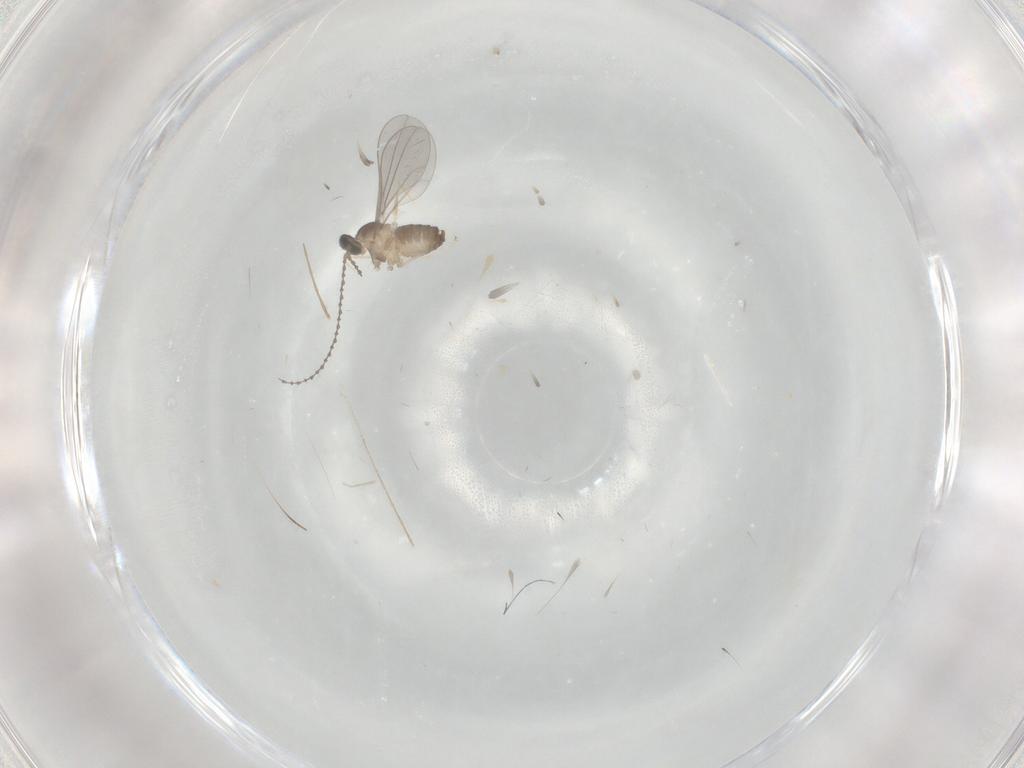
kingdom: Animalia
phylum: Arthropoda
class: Insecta
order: Diptera
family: Cecidomyiidae
